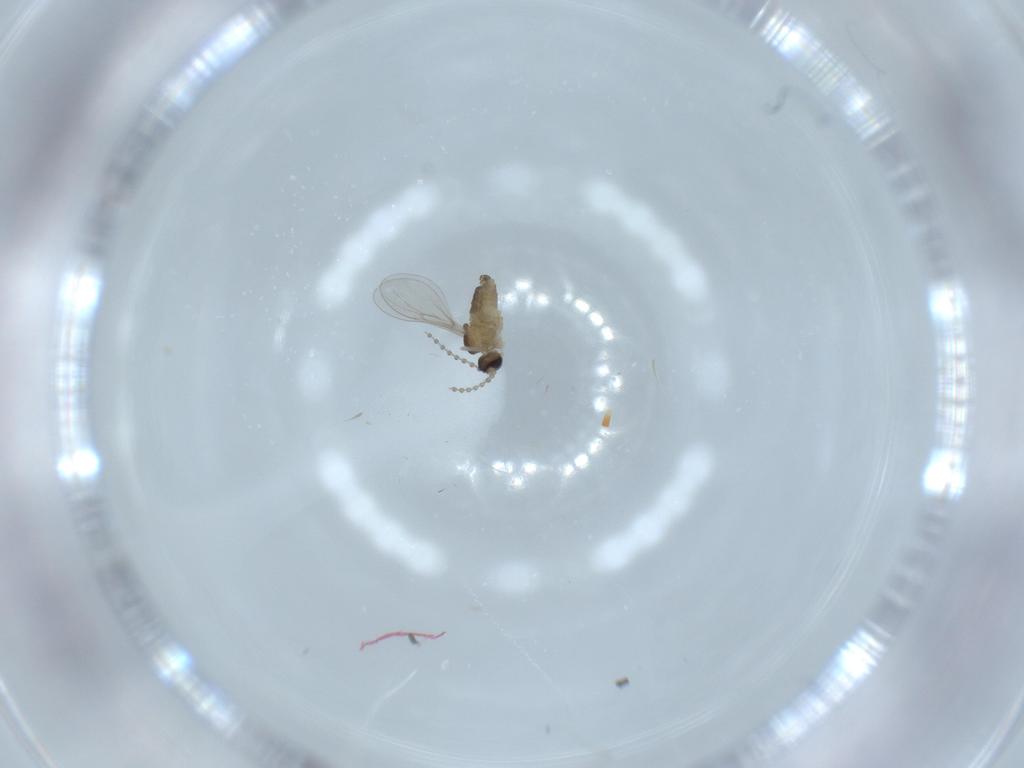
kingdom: Animalia
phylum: Arthropoda
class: Insecta
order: Diptera
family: Cecidomyiidae
